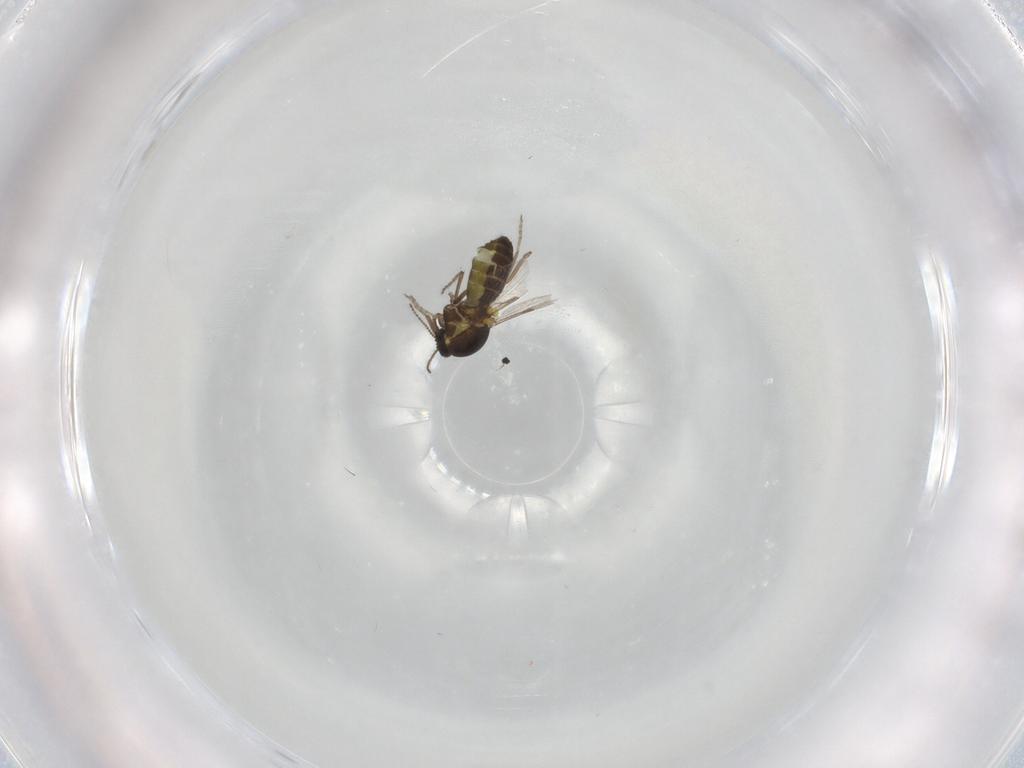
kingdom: Animalia
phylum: Arthropoda
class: Insecta
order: Diptera
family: Ceratopogonidae
